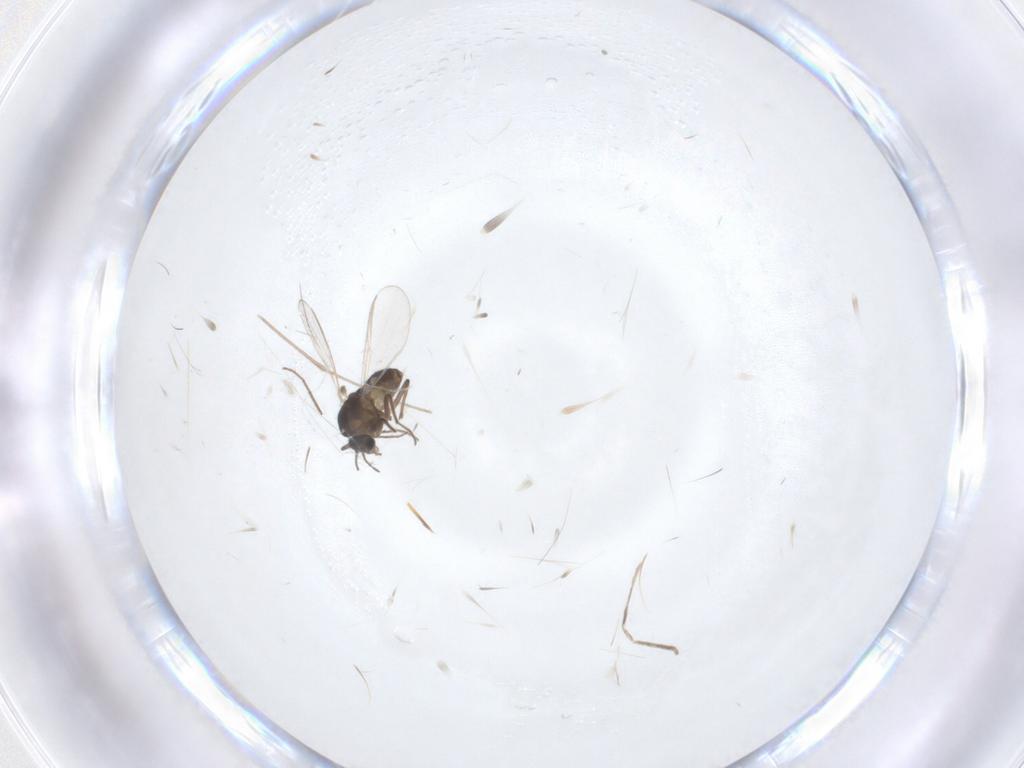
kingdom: Animalia
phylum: Arthropoda
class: Insecta
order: Diptera
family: Chironomidae
